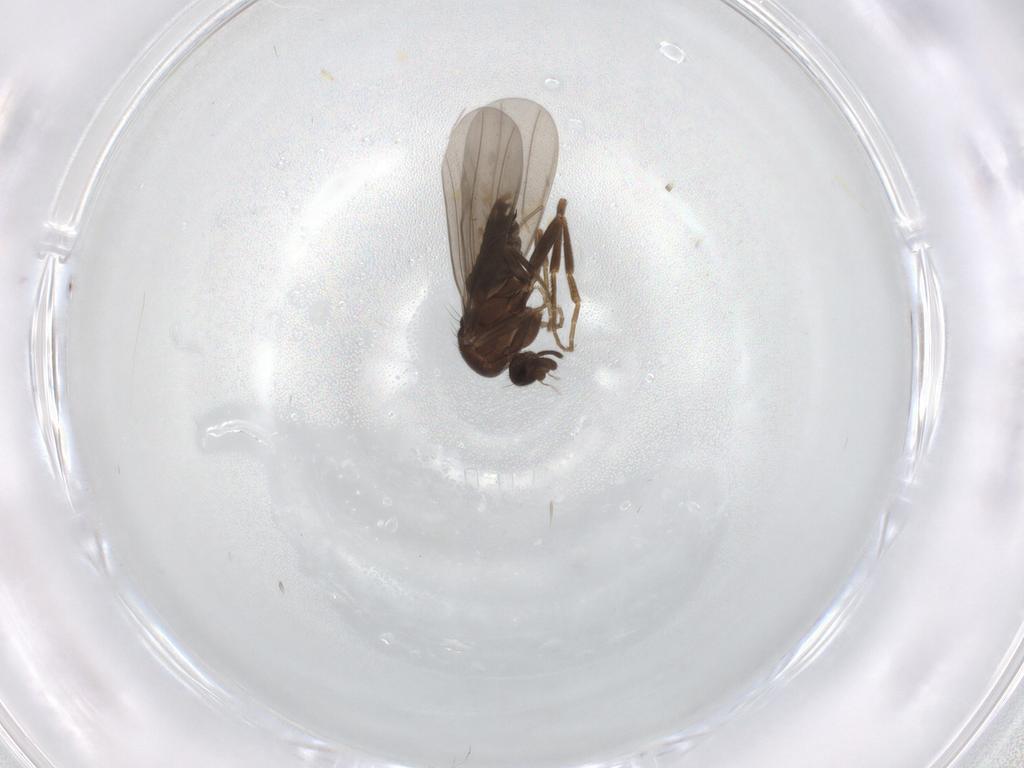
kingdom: Animalia
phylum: Arthropoda
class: Insecta
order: Diptera
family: Phoridae
